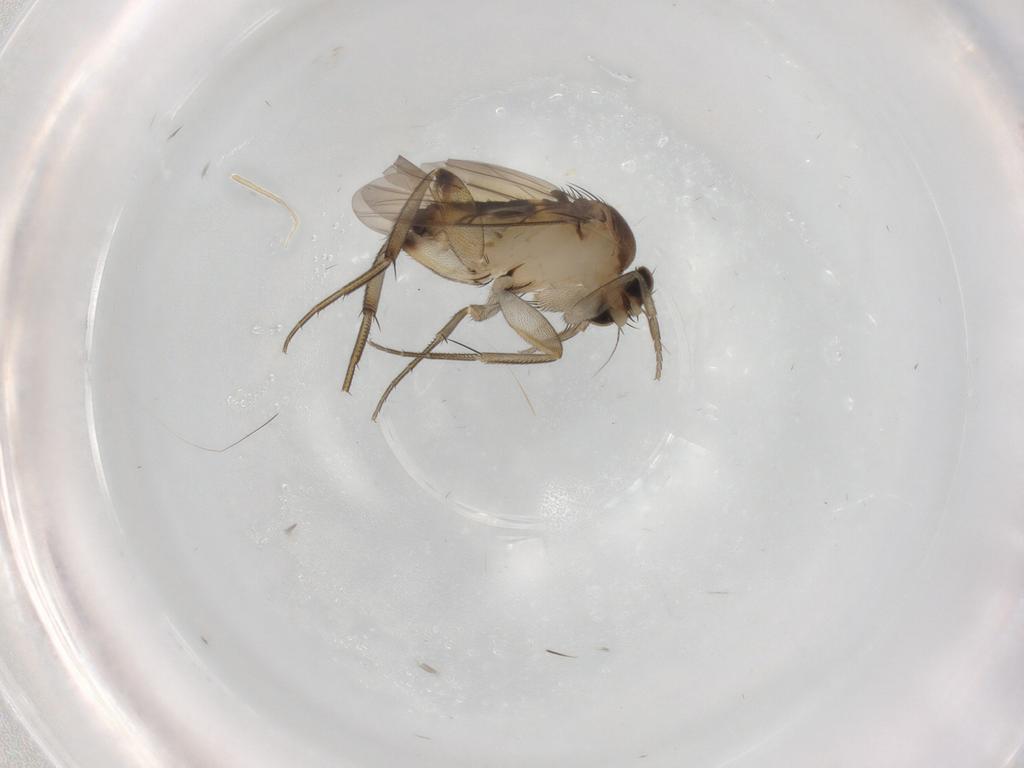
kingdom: Animalia
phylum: Arthropoda
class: Insecta
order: Diptera
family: Phoridae
